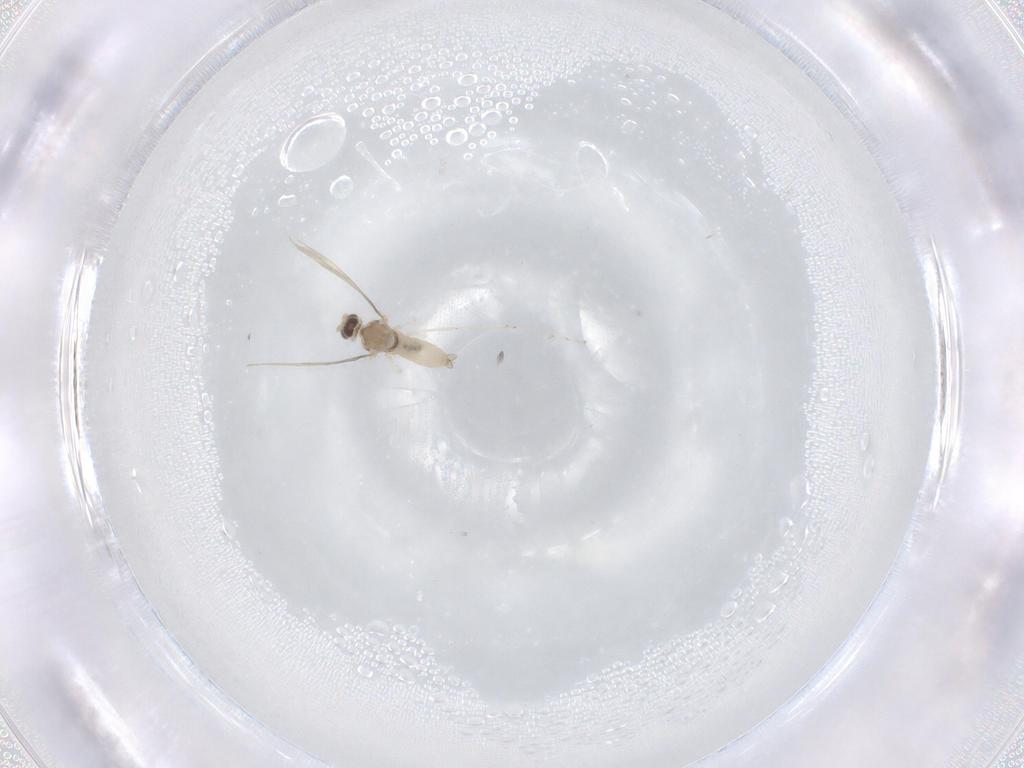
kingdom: Animalia
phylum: Arthropoda
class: Insecta
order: Diptera
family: Cecidomyiidae
